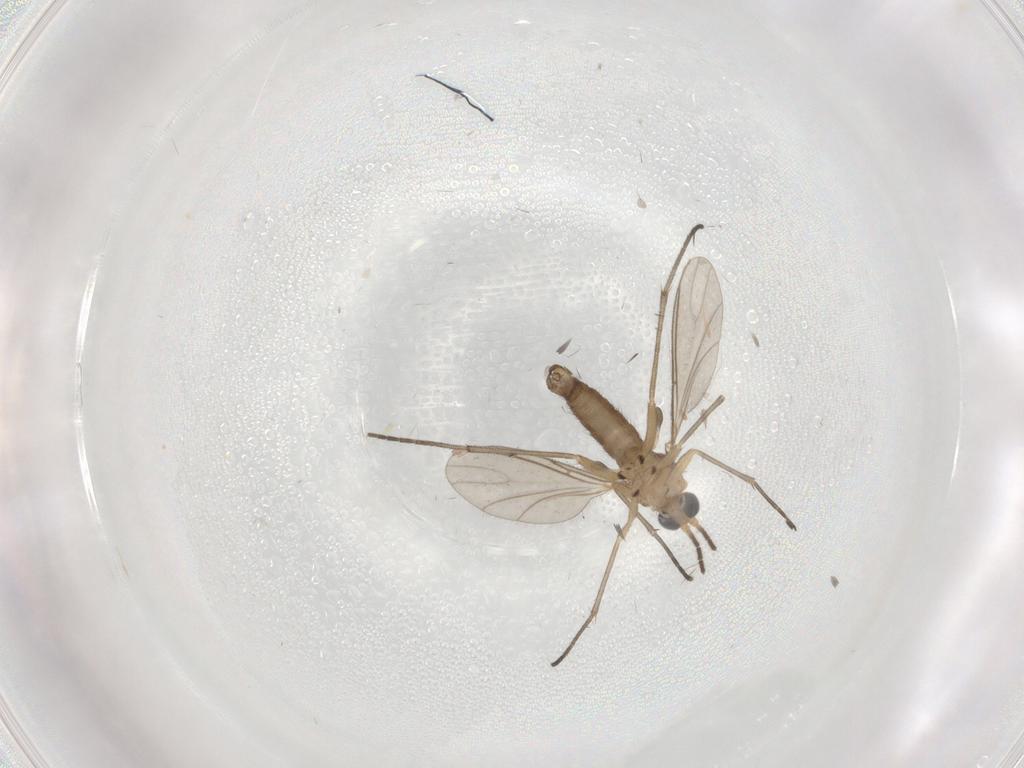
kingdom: Animalia
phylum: Arthropoda
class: Insecta
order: Diptera
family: Sciaridae
